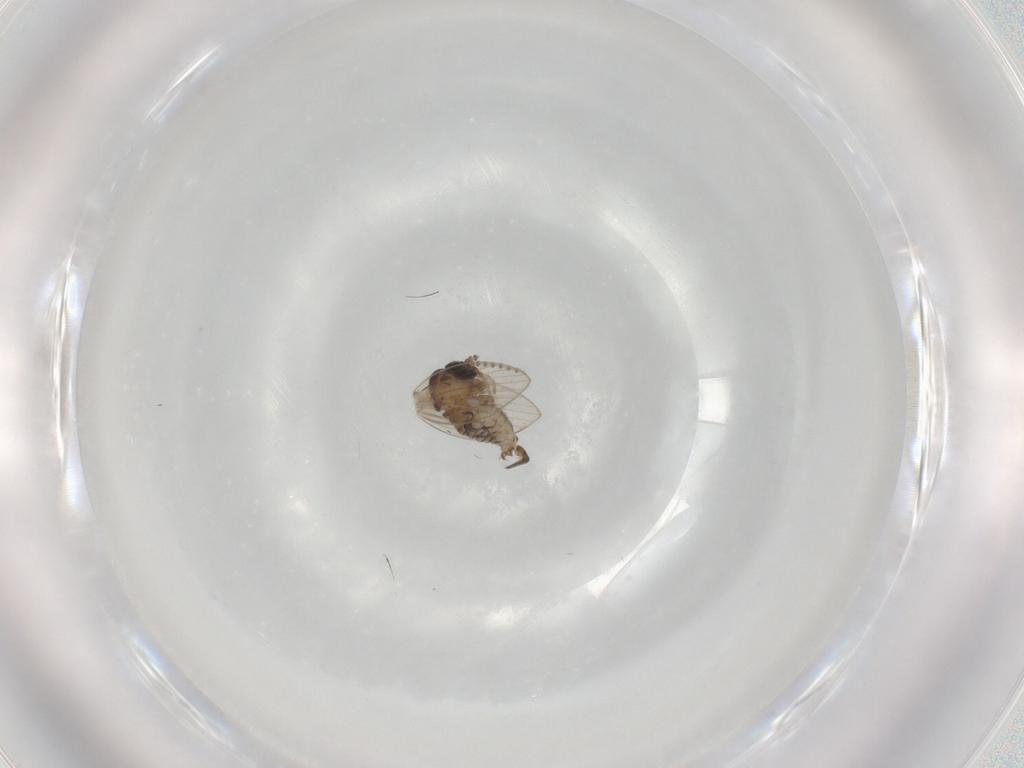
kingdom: Animalia
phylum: Arthropoda
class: Insecta
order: Diptera
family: Psychodidae
